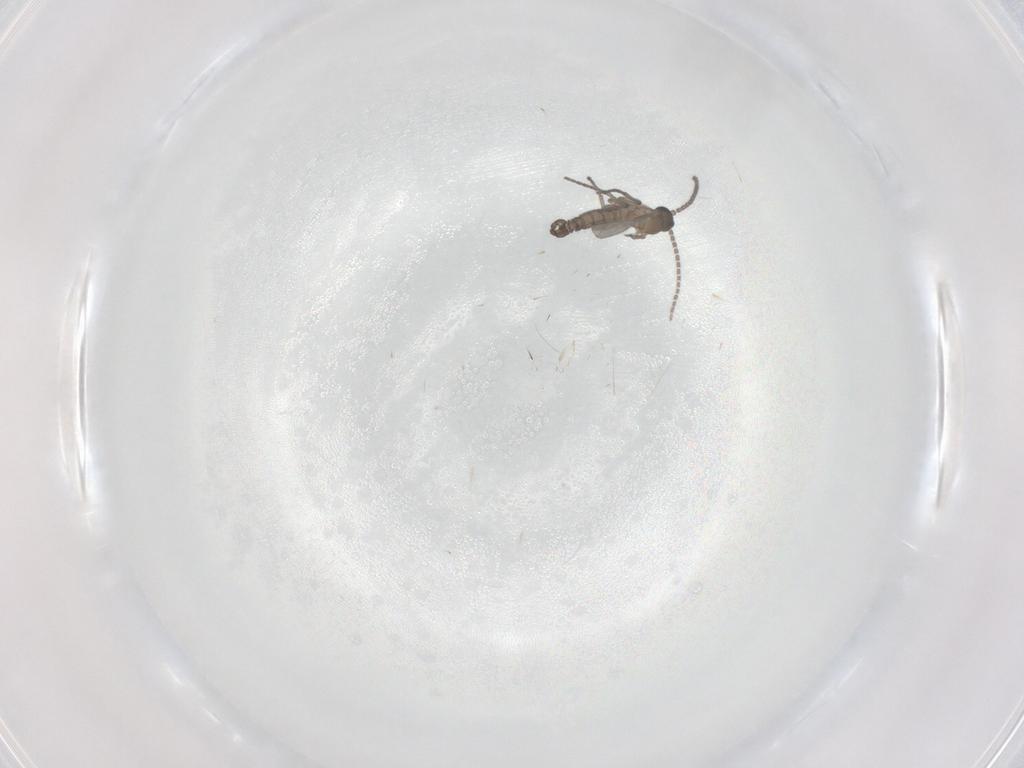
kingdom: Animalia
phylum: Arthropoda
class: Insecta
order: Diptera
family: Sciaridae
